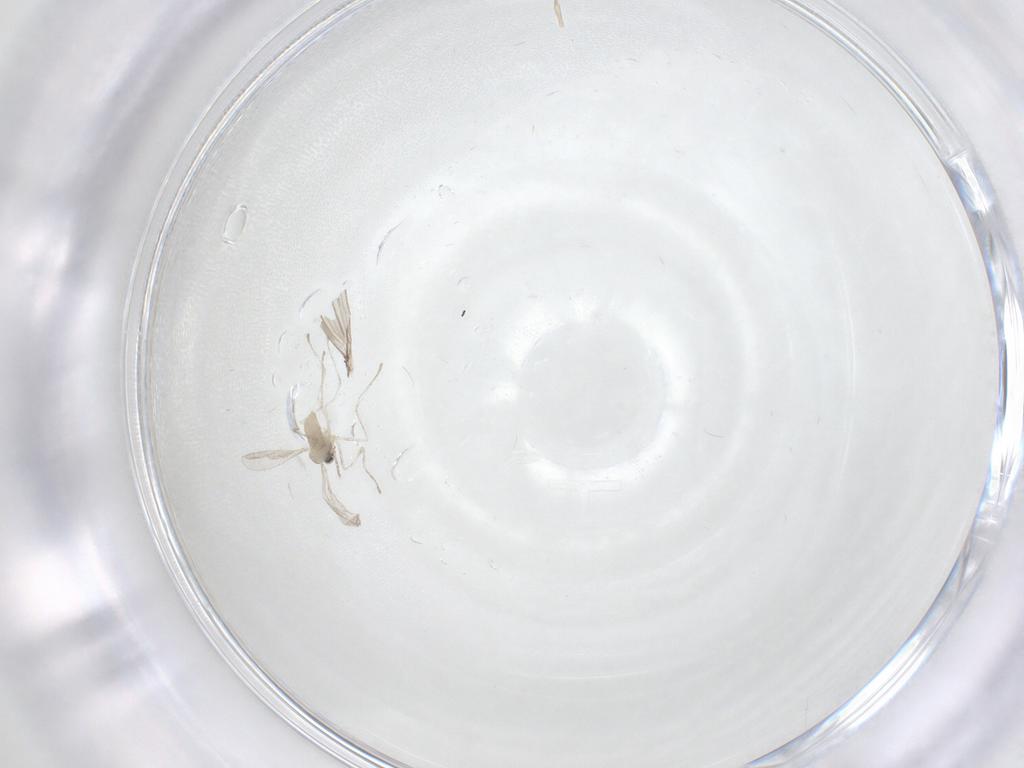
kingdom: Animalia
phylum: Arthropoda
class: Insecta
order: Diptera
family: Psychodidae
